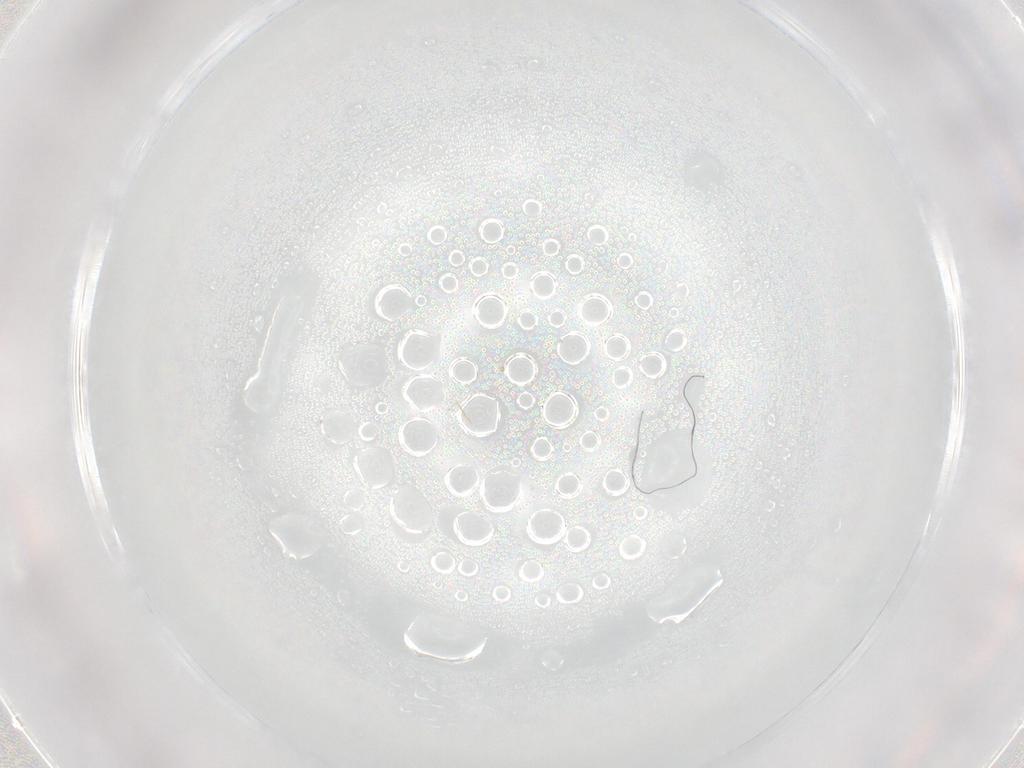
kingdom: Animalia
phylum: Arthropoda
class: Insecta
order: Diptera
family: Cecidomyiidae
